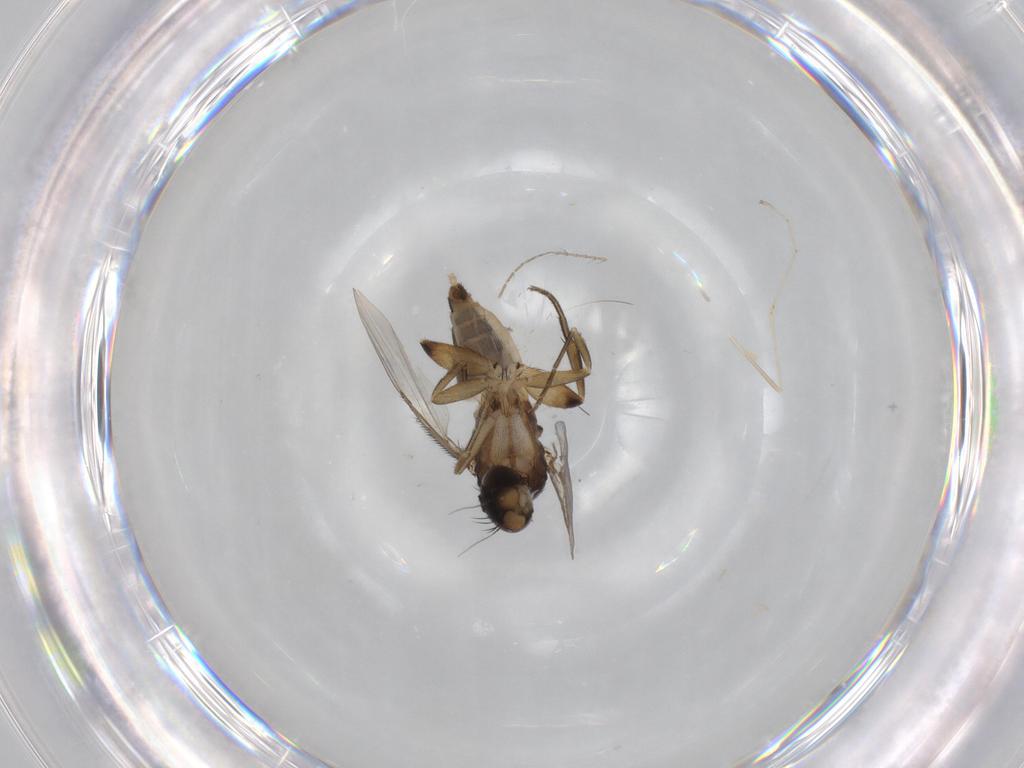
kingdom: Animalia
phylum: Arthropoda
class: Insecta
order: Diptera
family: Cecidomyiidae
